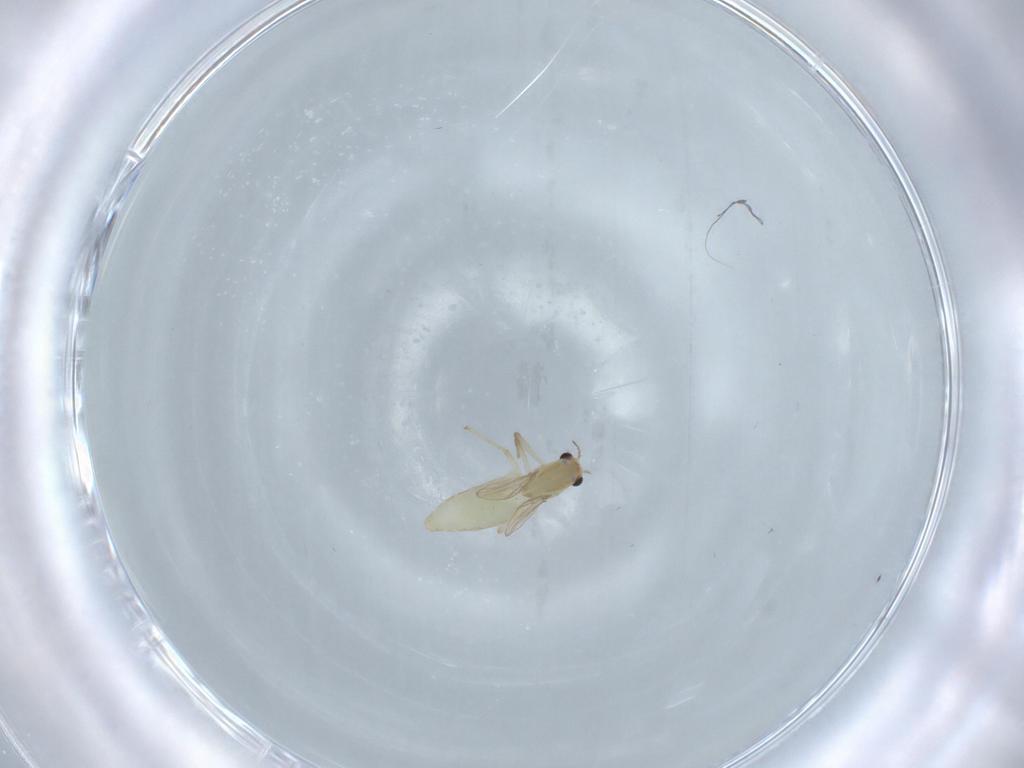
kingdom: Animalia
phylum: Arthropoda
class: Insecta
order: Diptera
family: Chironomidae
